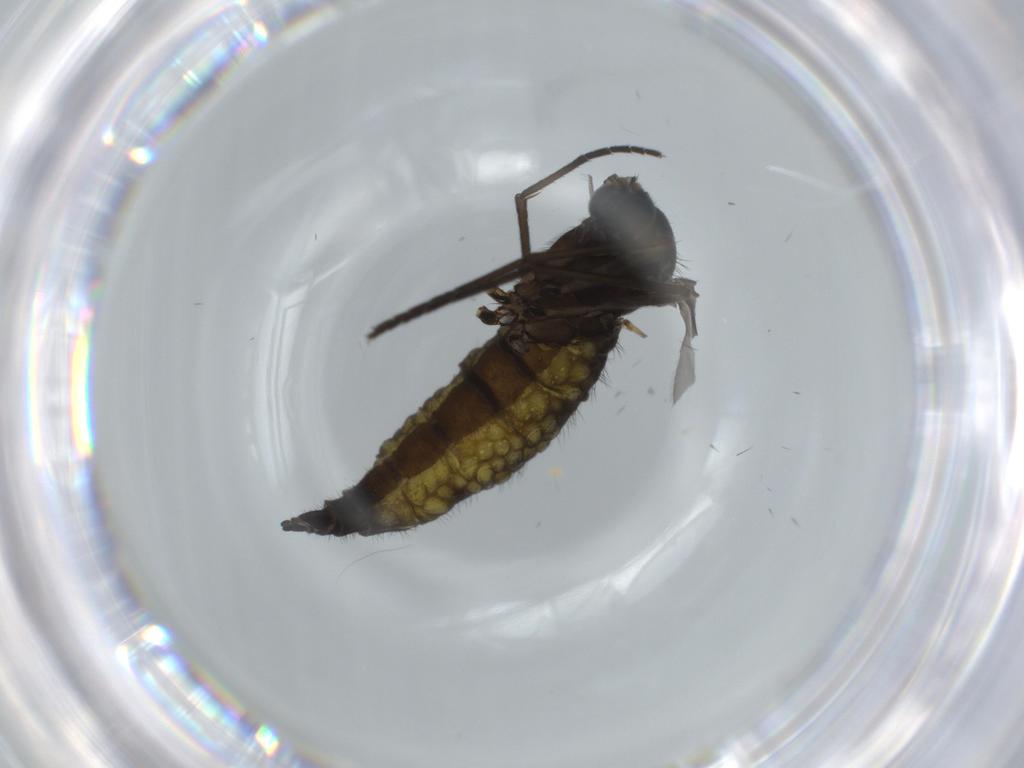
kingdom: Animalia
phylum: Arthropoda
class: Insecta
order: Diptera
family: Sciaridae
